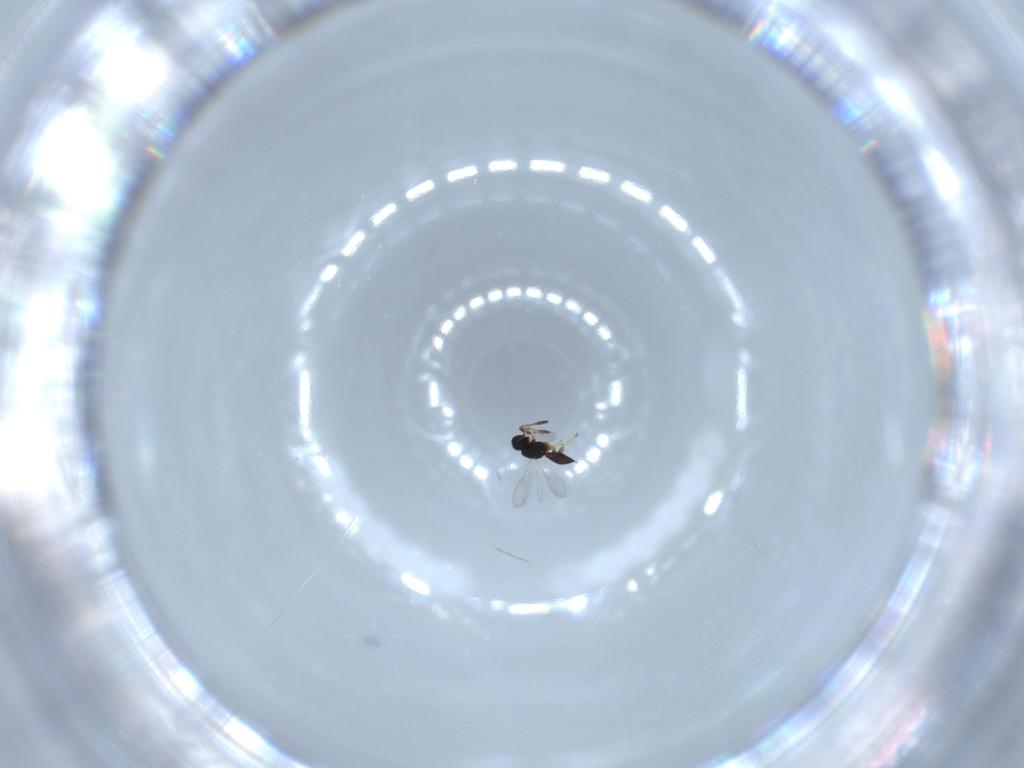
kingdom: Animalia
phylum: Arthropoda
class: Insecta
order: Hymenoptera
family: Scelionidae
